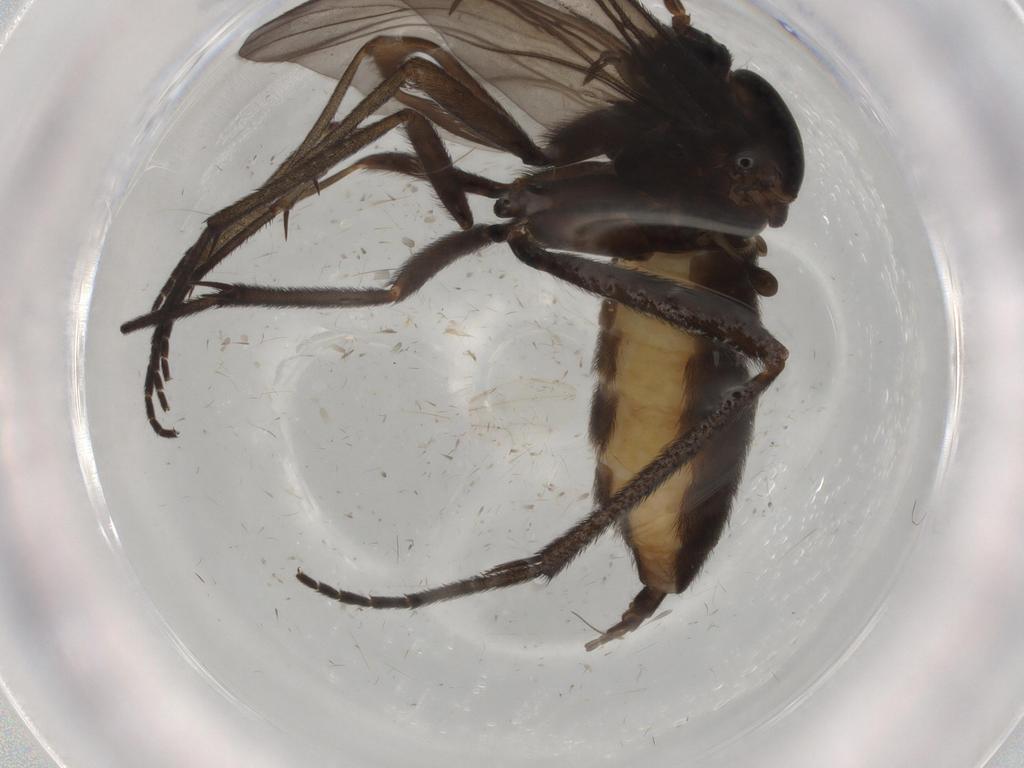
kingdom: Animalia
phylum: Arthropoda
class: Insecta
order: Diptera
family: Sciaridae
